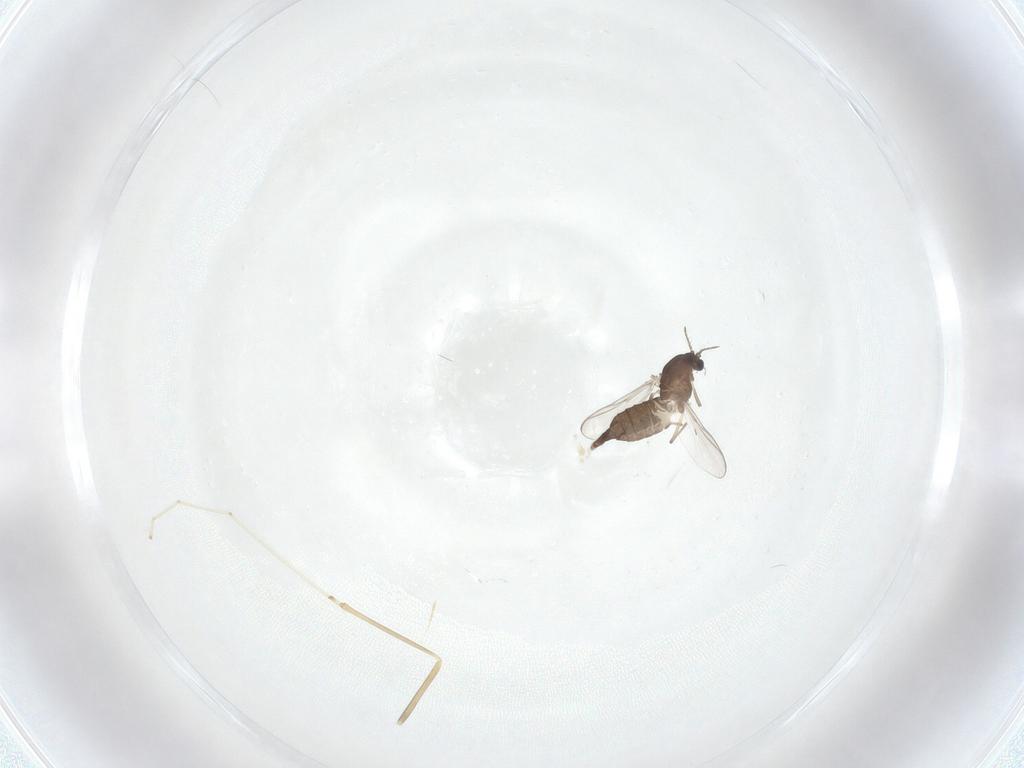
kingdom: Animalia
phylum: Arthropoda
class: Insecta
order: Diptera
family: Chironomidae
